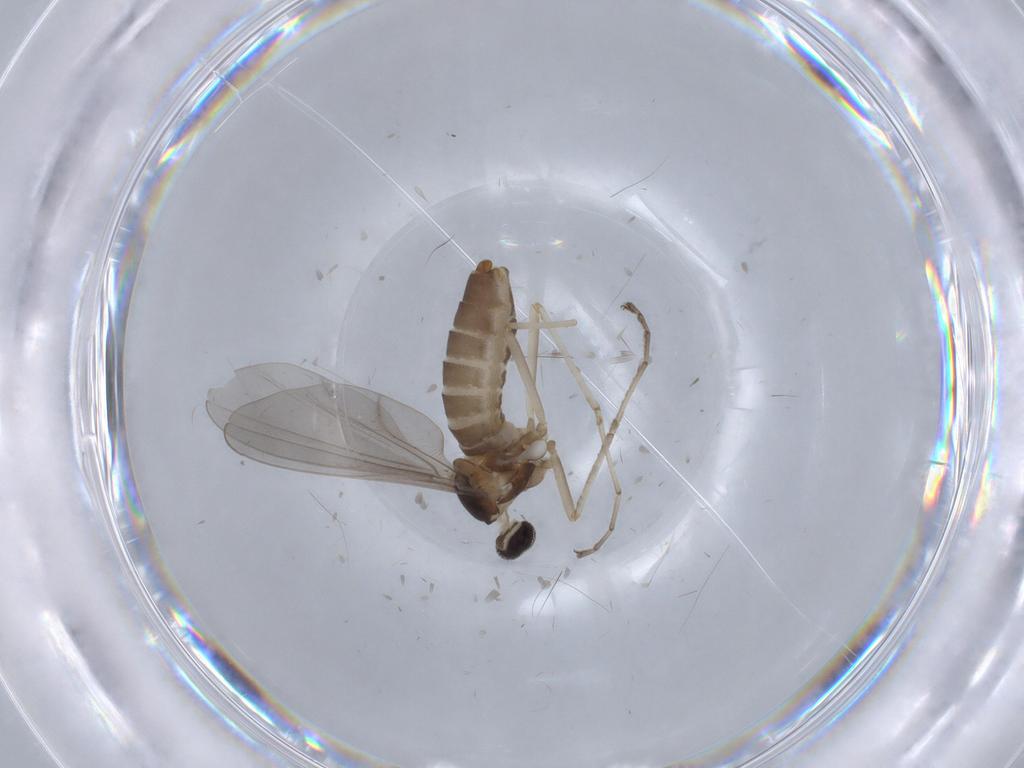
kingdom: Animalia
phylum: Arthropoda
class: Insecta
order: Diptera
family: Cecidomyiidae
